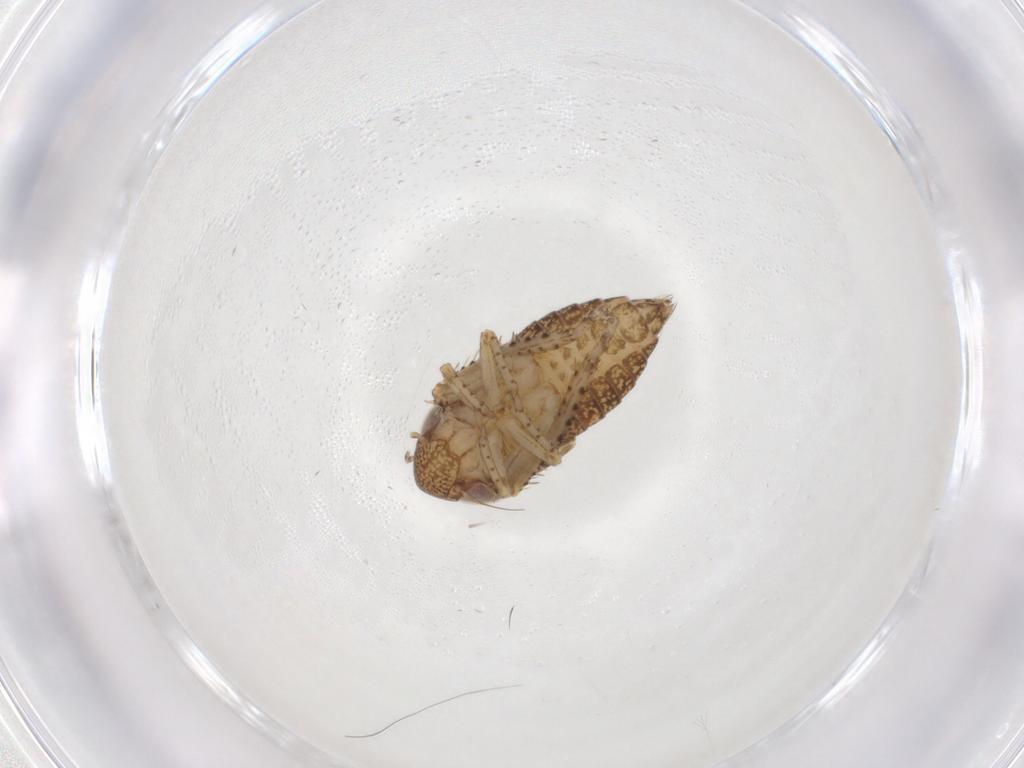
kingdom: Animalia
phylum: Arthropoda
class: Insecta
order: Hemiptera
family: Cicadellidae
